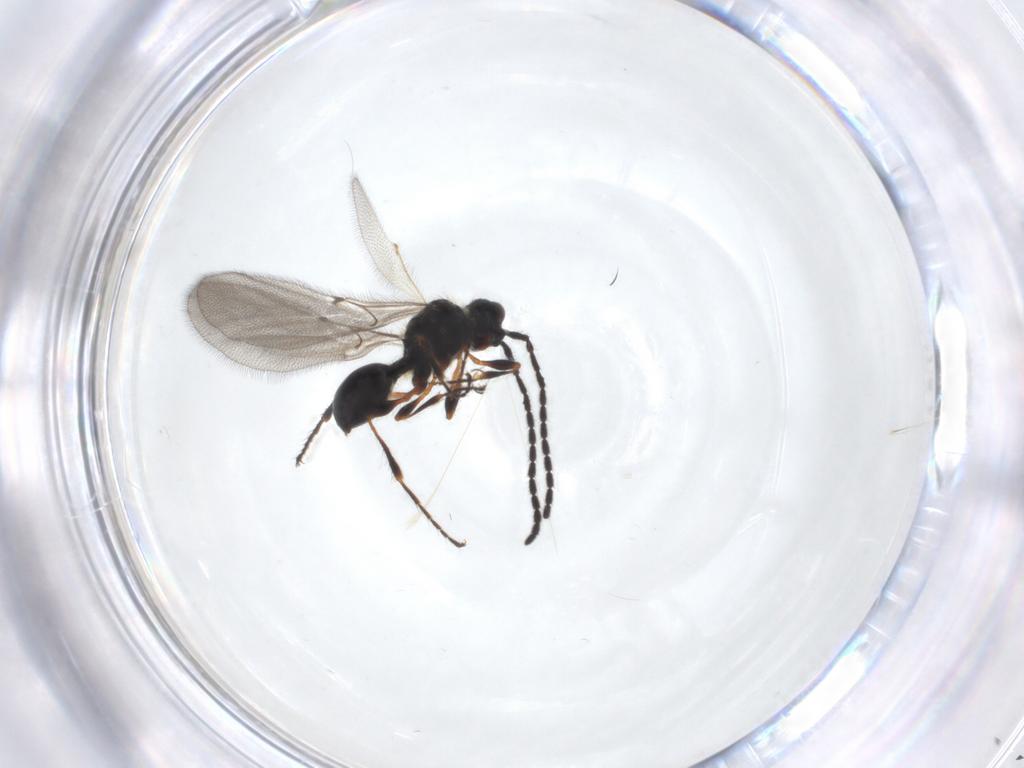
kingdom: Animalia
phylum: Arthropoda
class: Insecta
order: Hymenoptera
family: Diapriidae
